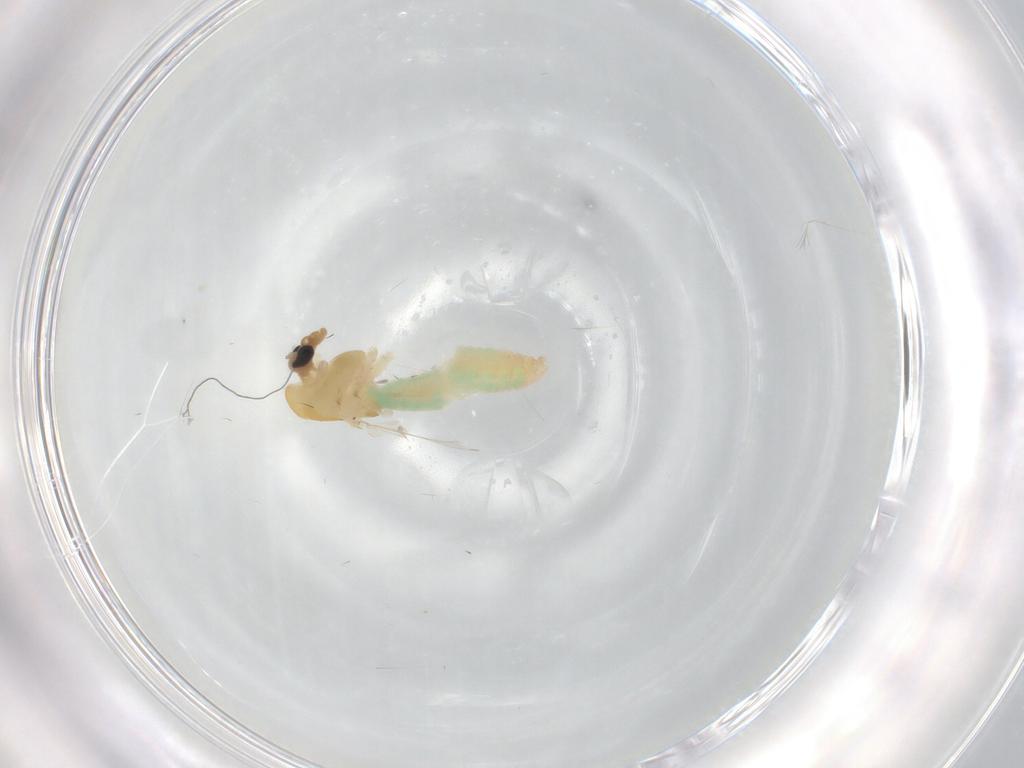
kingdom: Animalia
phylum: Arthropoda
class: Insecta
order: Diptera
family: Chironomidae
